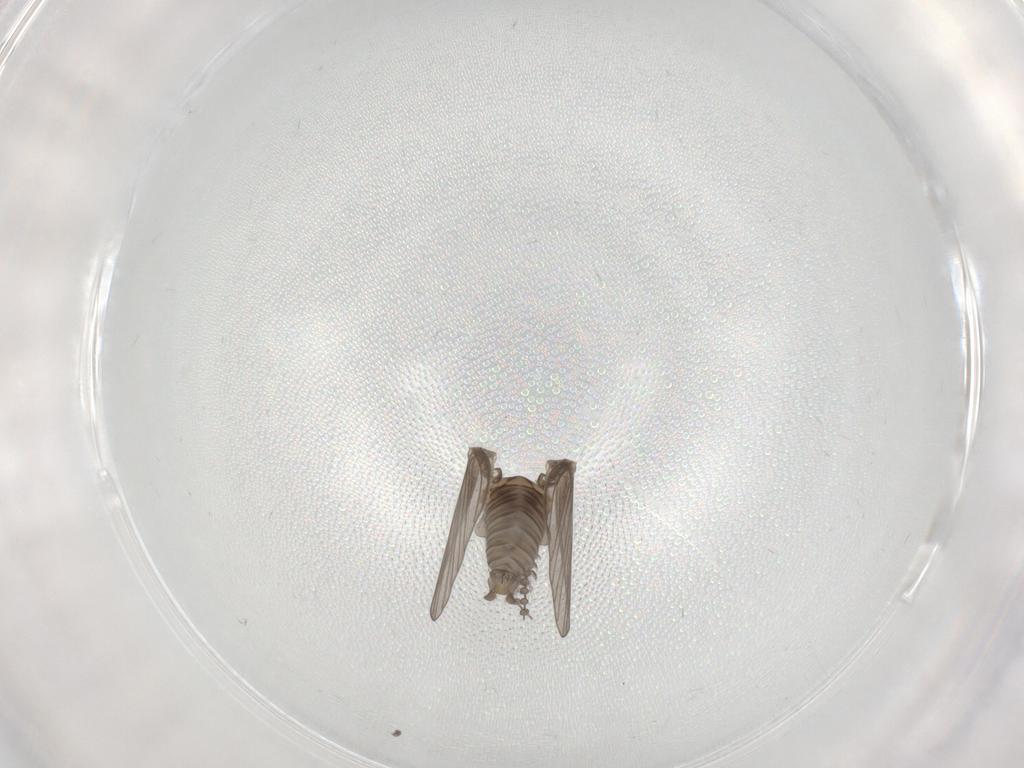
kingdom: Animalia
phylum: Arthropoda
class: Insecta
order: Diptera
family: Psychodidae
